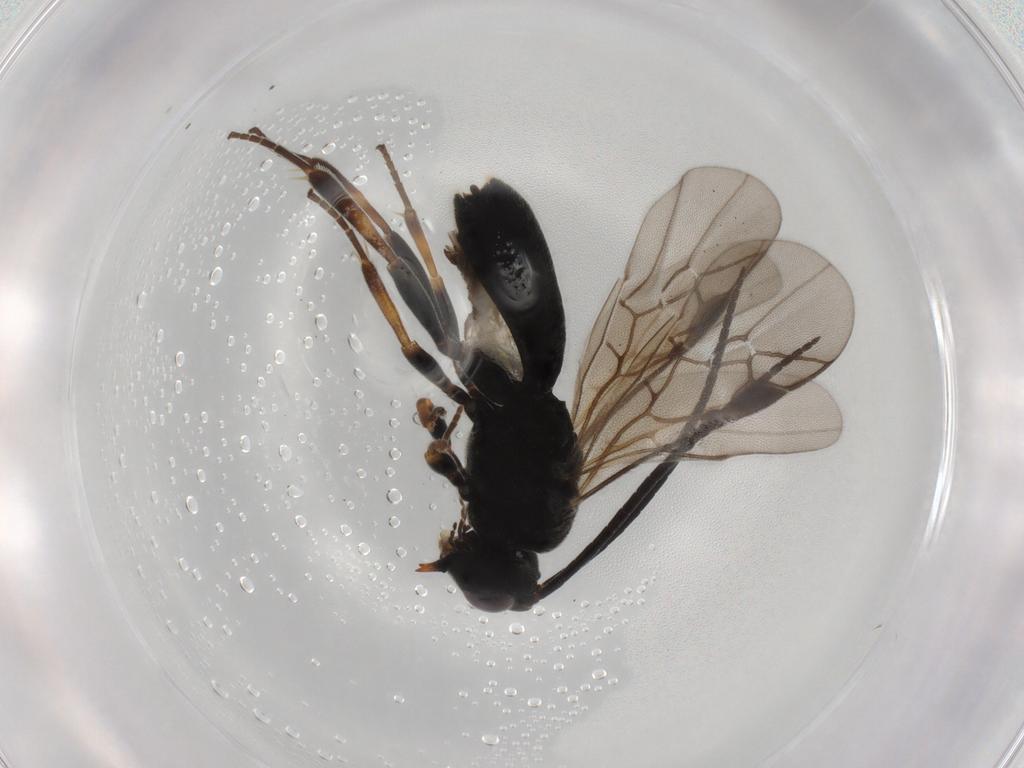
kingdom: Animalia
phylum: Arthropoda
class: Insecta
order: Hymenoptera
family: Braconidae
